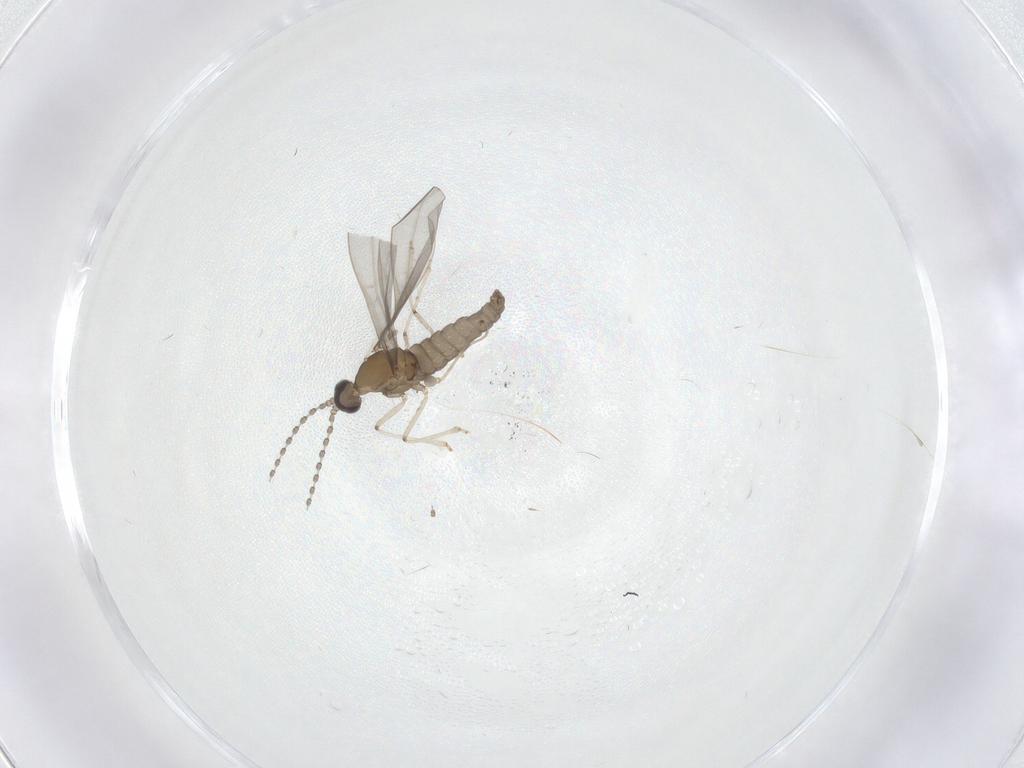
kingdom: Animalia
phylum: Arthropoda
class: Insecta
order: Diptera
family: Cecidomyiidae
